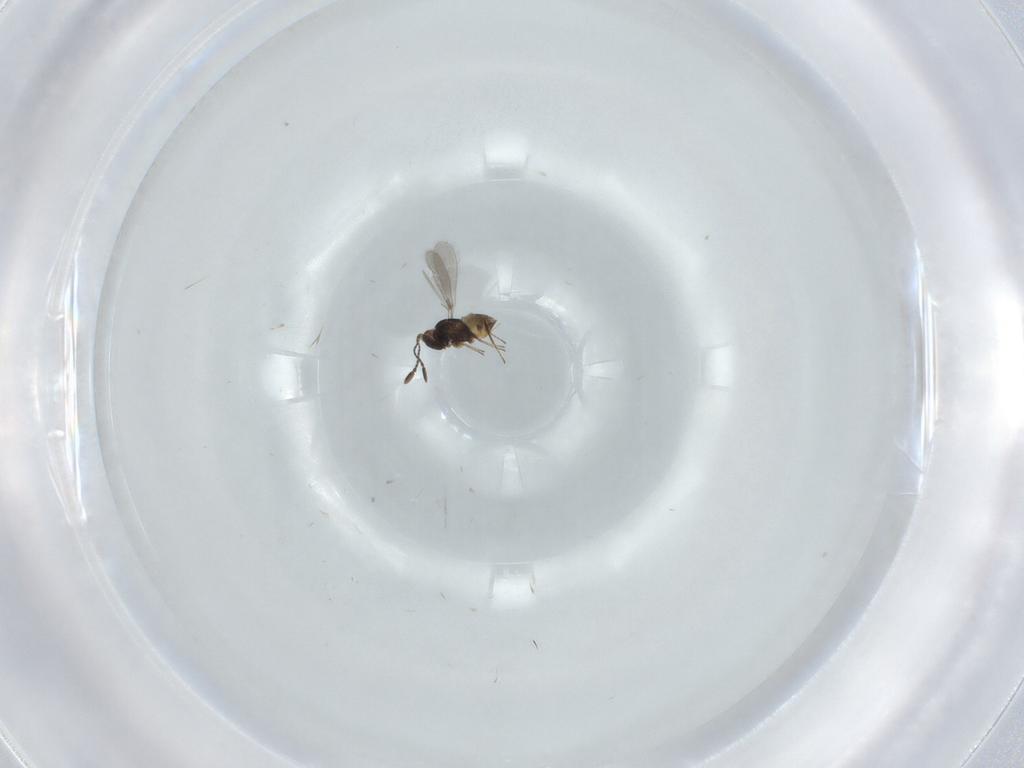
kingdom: Animalia
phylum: Arthropoda
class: Insecta
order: Hymenoptera
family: Mymaridae
